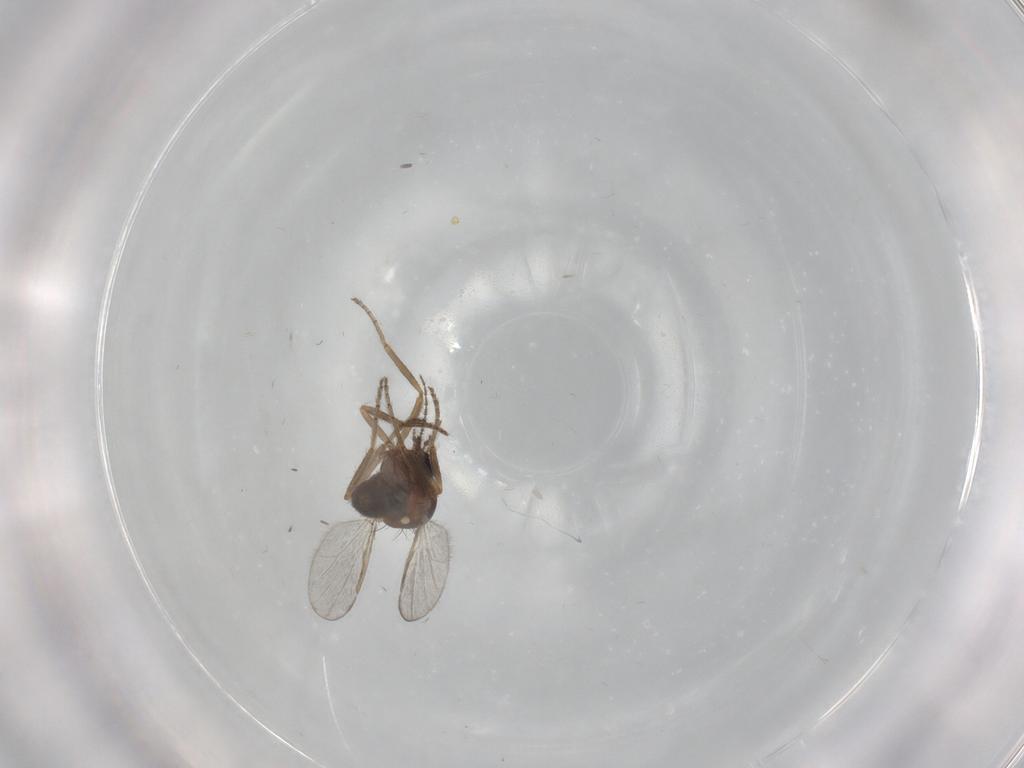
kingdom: Animalia
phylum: Arthropoda
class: Insecta
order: Diptera
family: Ceratopogonidae
